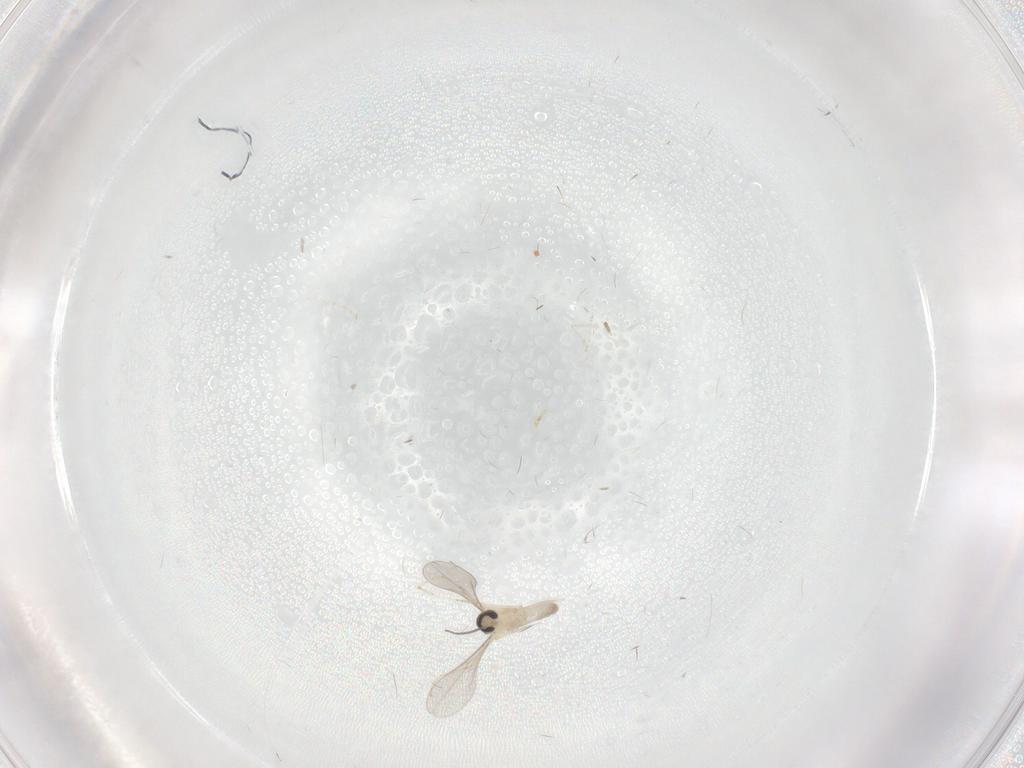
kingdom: Animalia
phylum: Arthropoda
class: Insecta
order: Diptera
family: Cecidomyiidae
